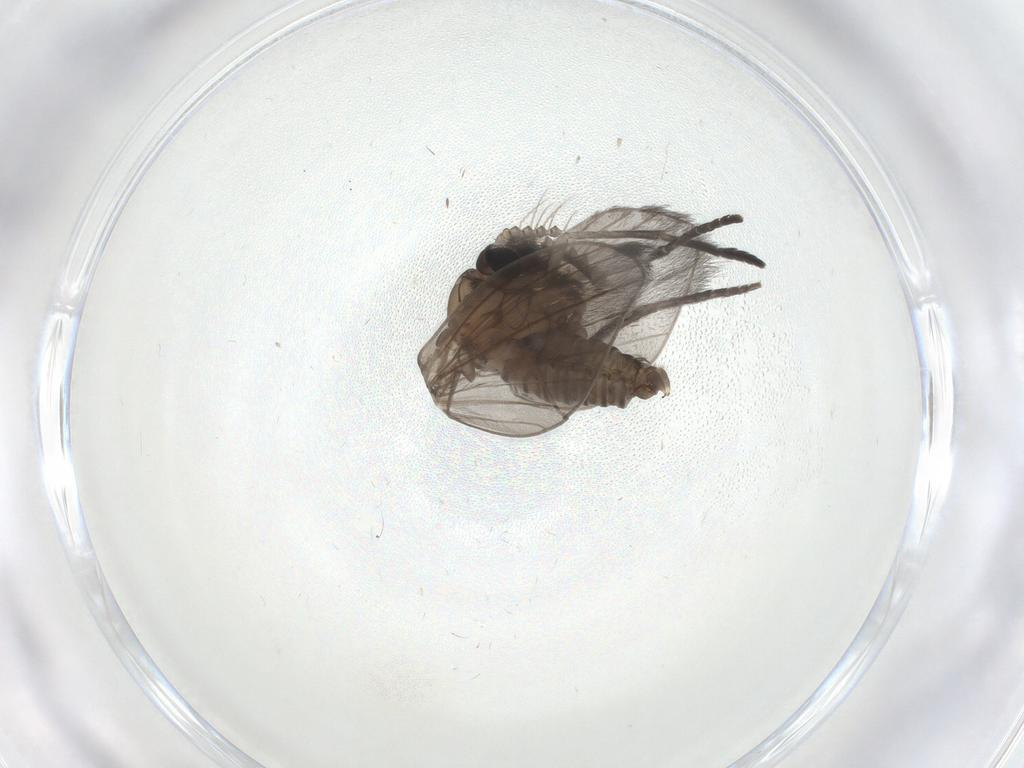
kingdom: Animalia
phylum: Arthropoda
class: Insecta
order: Diptera
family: Psychodidae
